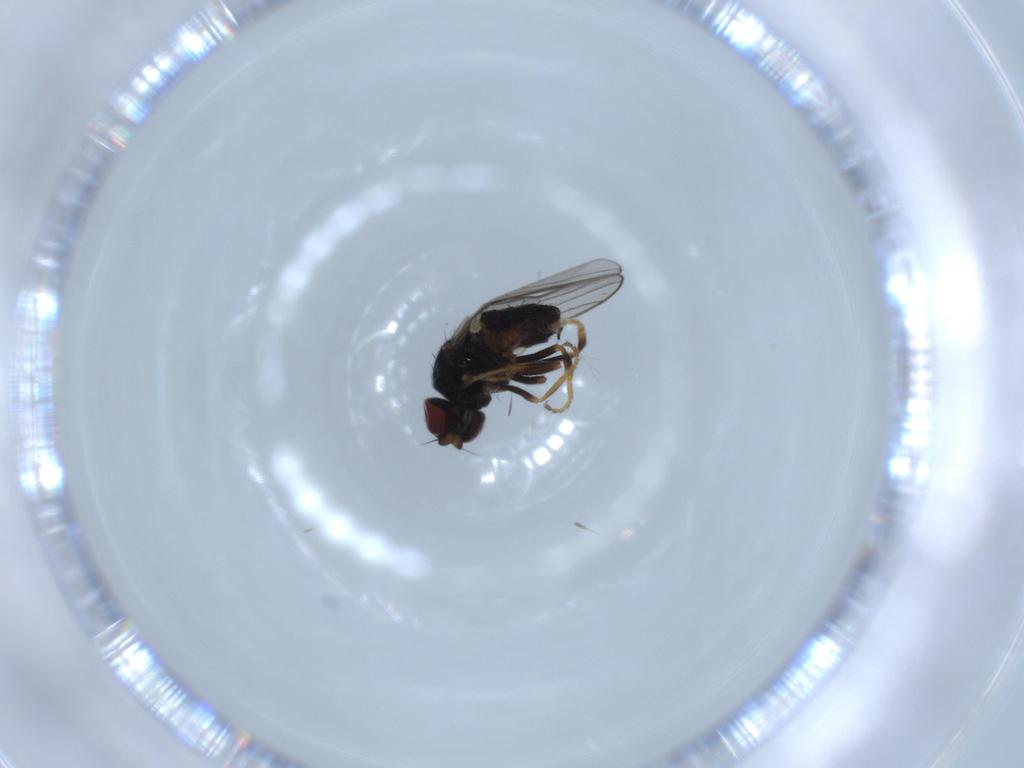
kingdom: Animalia
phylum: Arthropoda
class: Insecta
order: Diptera
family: Chloropidae
